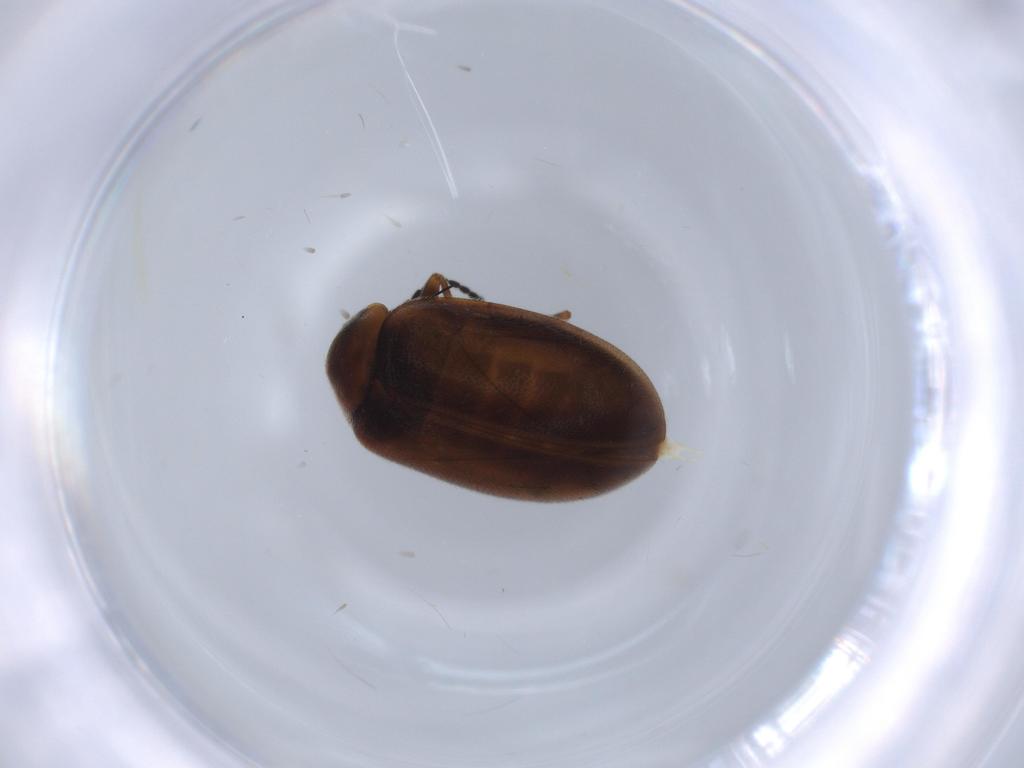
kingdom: Animalia
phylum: Arthropoda
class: Insecta
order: Coleoptera
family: Scirtidae
